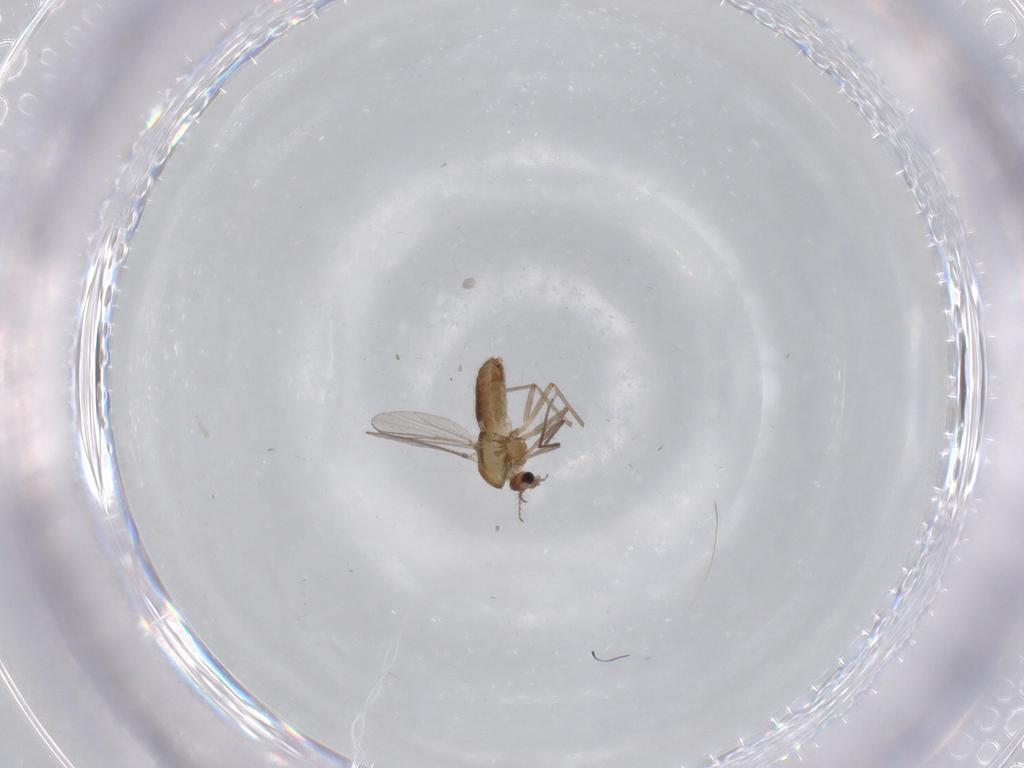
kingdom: Animalia
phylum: Arthropoda
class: Insecta
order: Diptera
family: Chironomidae
